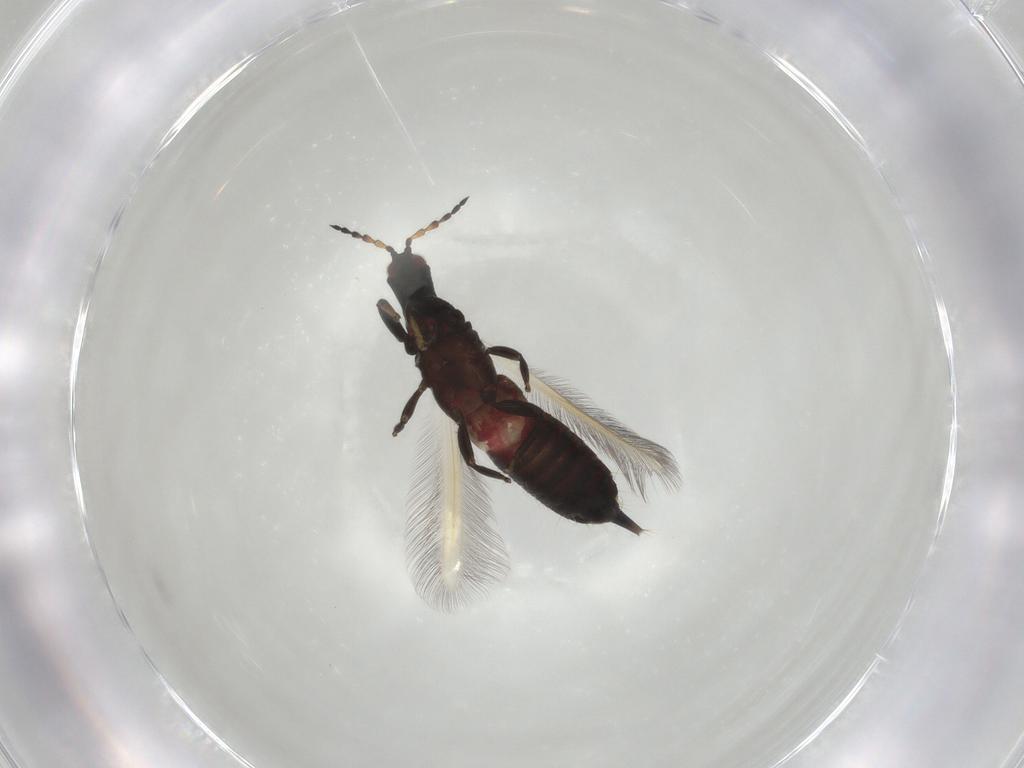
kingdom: Animalia
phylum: Arthropoda
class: Insecta
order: Thysanoptera
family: Phlaeothripidae
